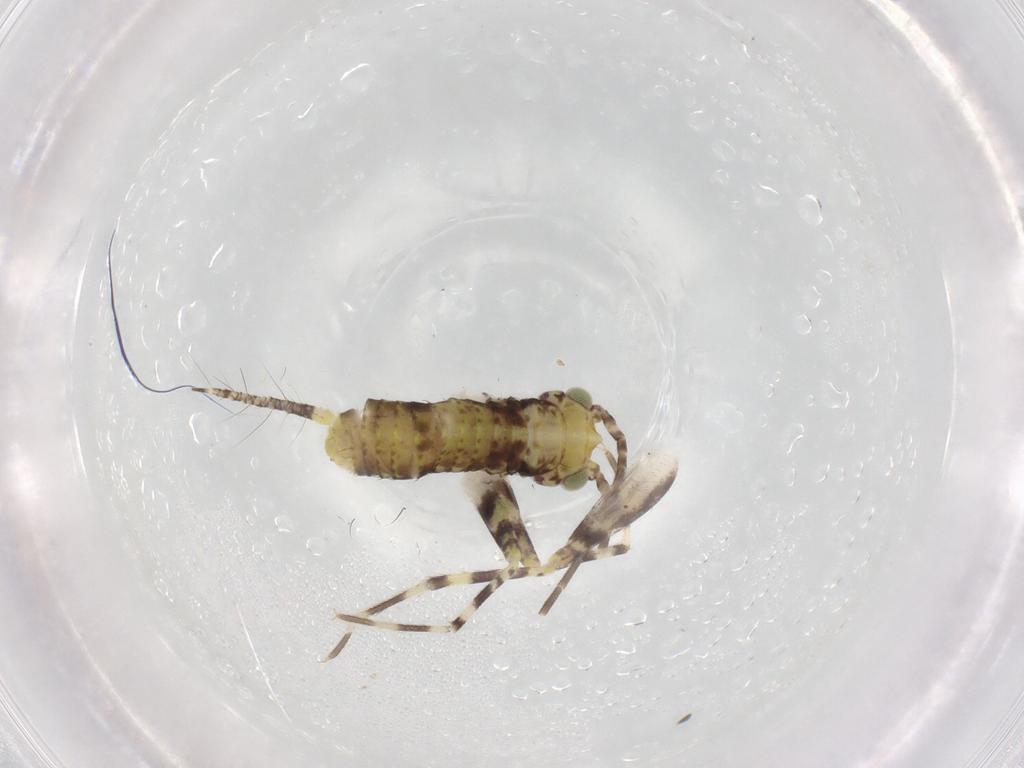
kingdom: Animalia
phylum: Arthropoda
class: Insecta
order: Orthoptera
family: Gryllidae
